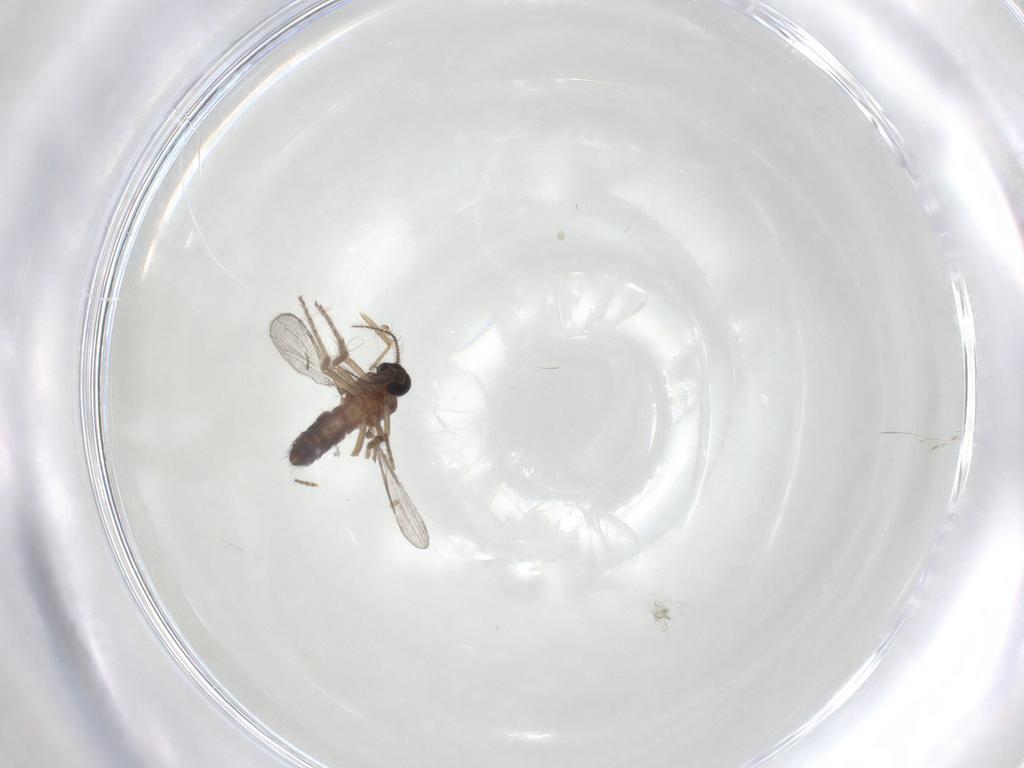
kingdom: Animalia
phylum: Arthropoda
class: Insecta
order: Diptera
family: Ceratopogonidae
